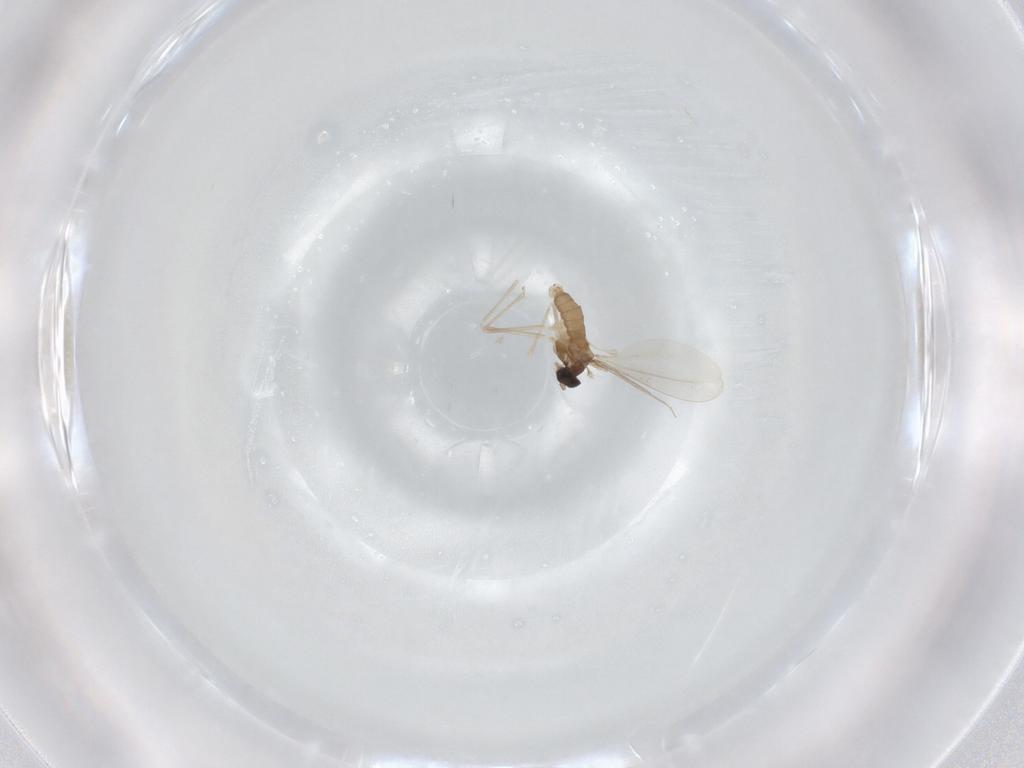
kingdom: Animalia
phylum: Arthropoda
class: Insecta
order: Diptera
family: Cecidomyiidae
